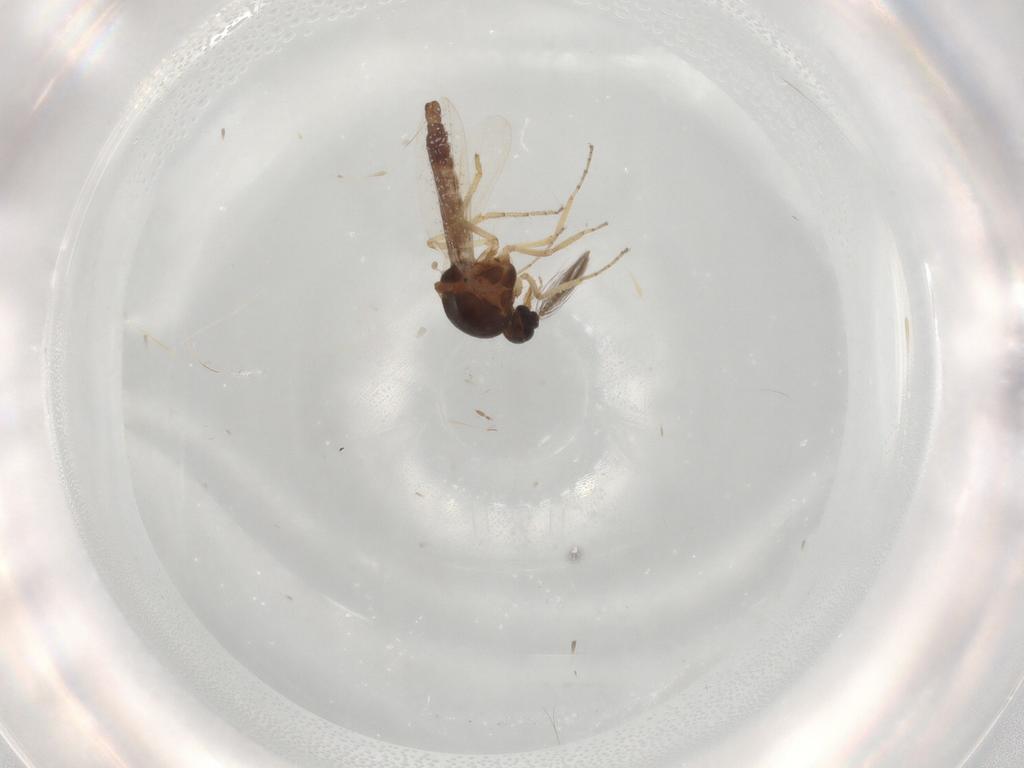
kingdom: Animalia
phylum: Arthropoda
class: Insecta
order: Diptera
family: Ceratopogonidae
